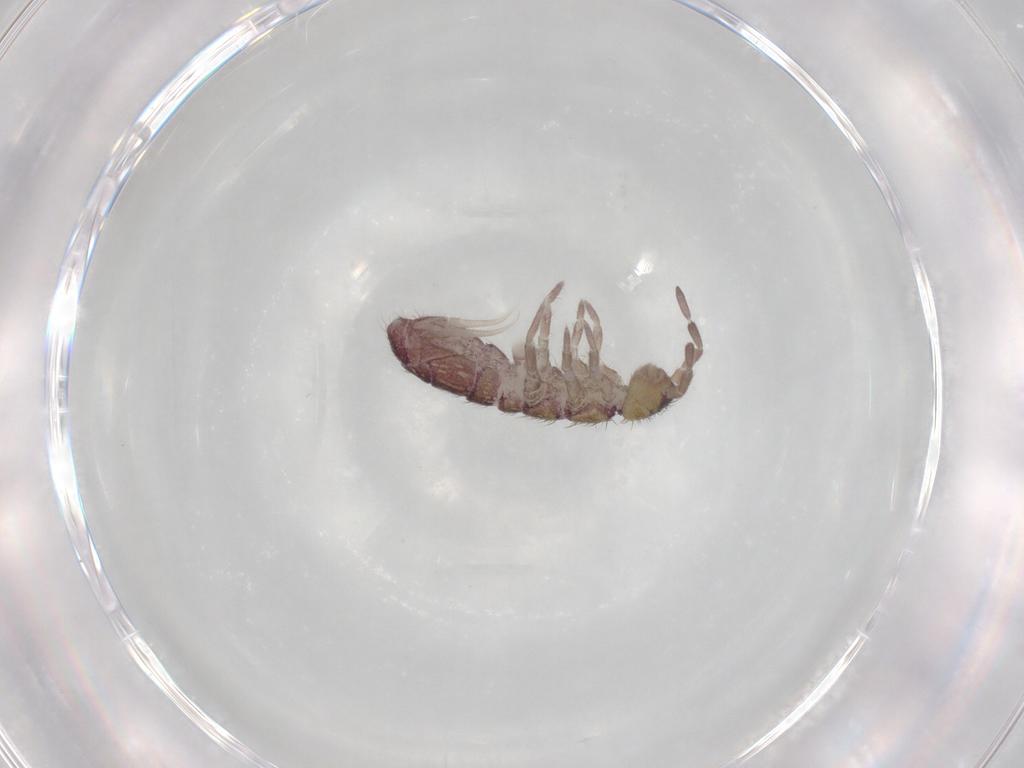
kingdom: Animalia
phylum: Arthropoda
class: Collembola
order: Entomobryomorpha
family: Isotomidae
